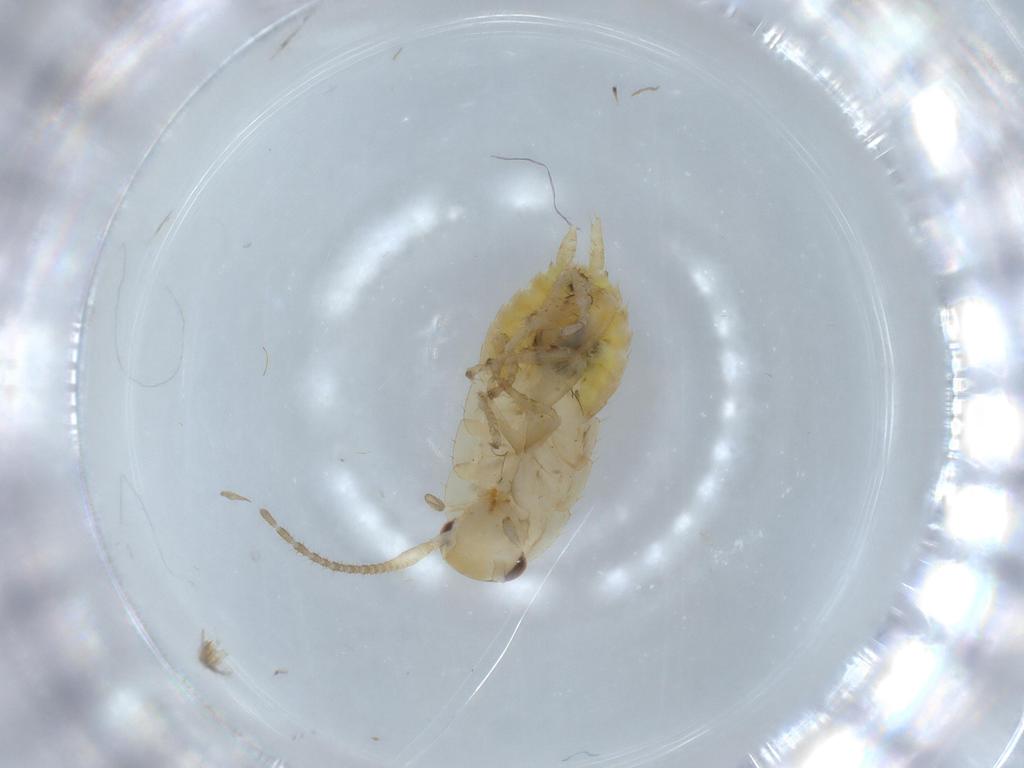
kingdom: Animalia
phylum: Arthropoda
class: Insecta
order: Blattodea
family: Ectobiidae
